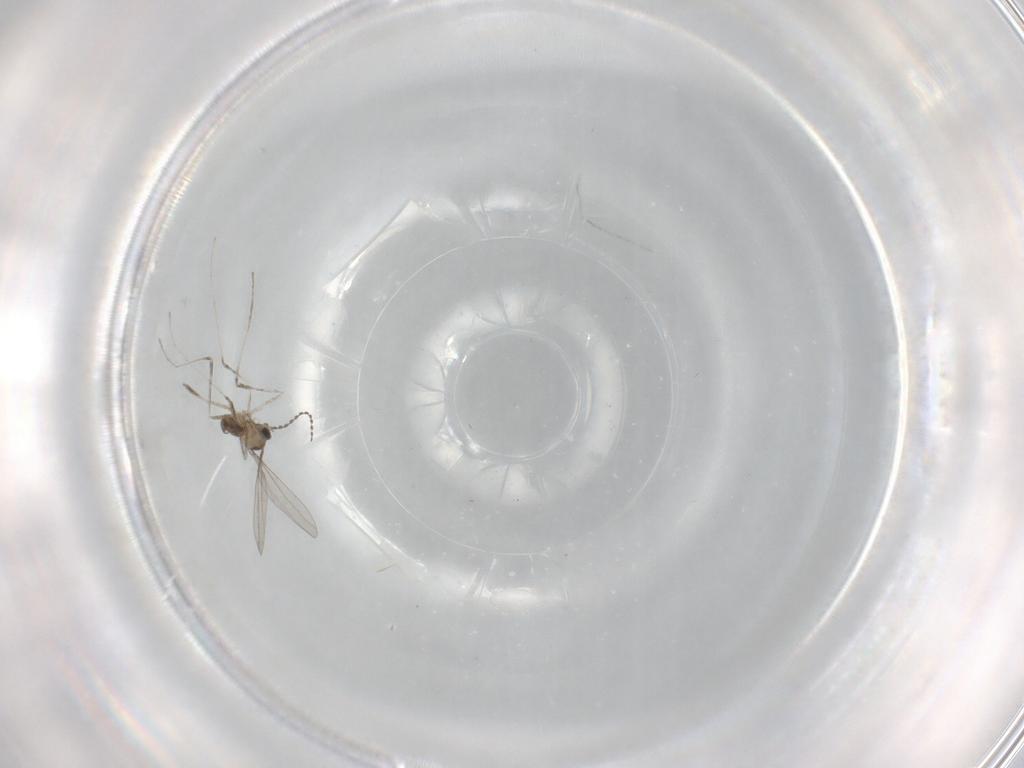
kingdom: Animalia
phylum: Arthropoda
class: Insecta
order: Diptera
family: Cecidomyiidae
